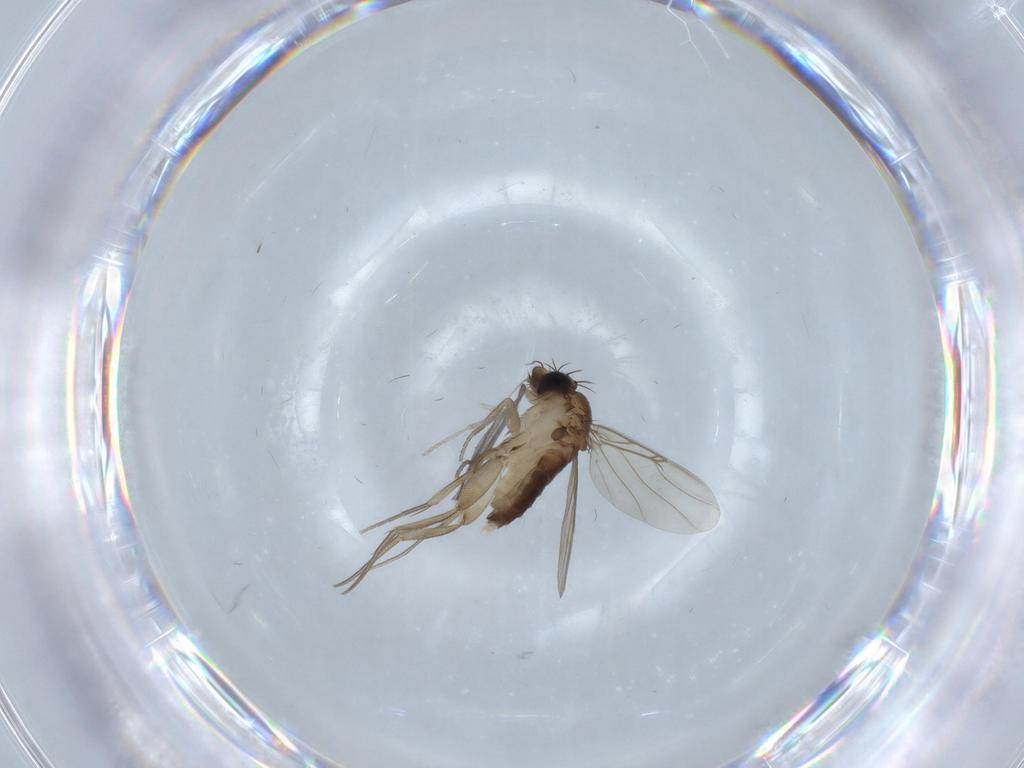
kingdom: Animalia
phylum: Arthropoda
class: Insecta
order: Diptera
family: Phoridae
